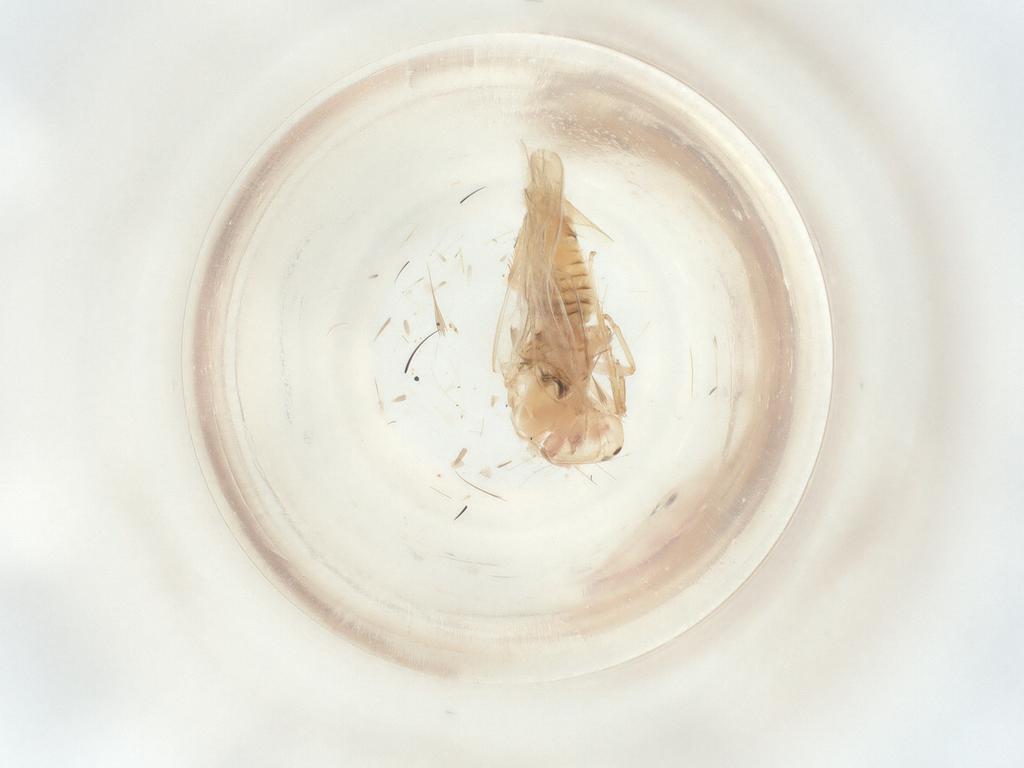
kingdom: Animalia
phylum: Arthropoda
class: Insecta
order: Hemiptera
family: Cicadellidae
